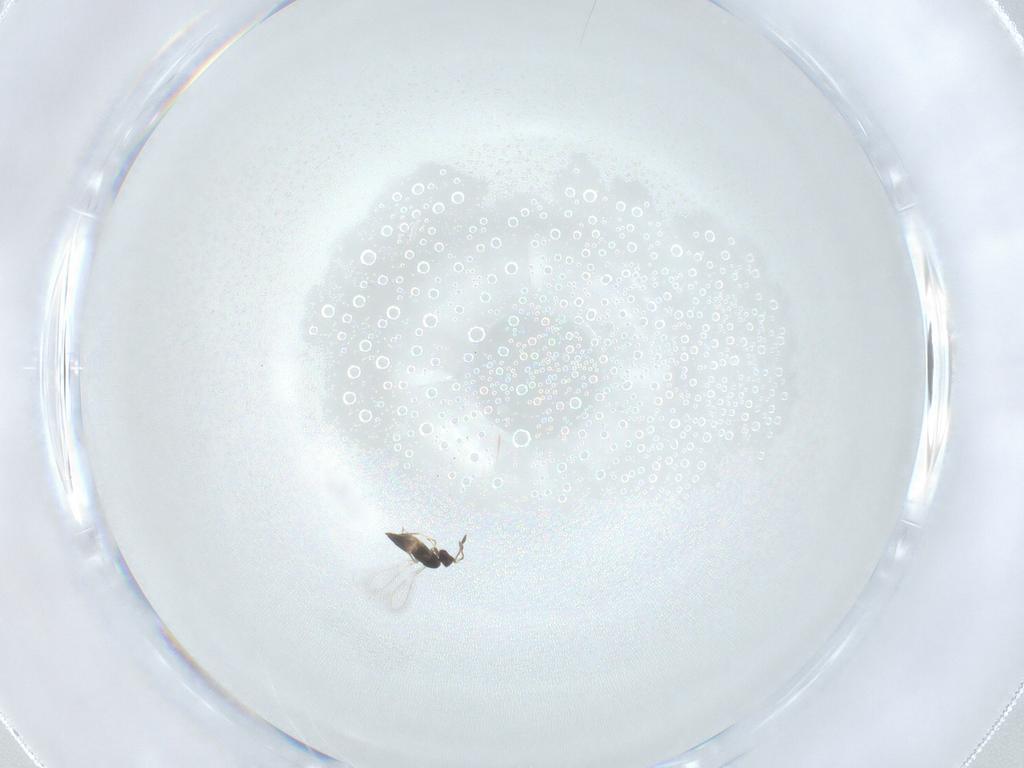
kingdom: Animalia
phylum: Arthropoda
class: Insecta
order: Hymenoptera
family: Mymaridae
